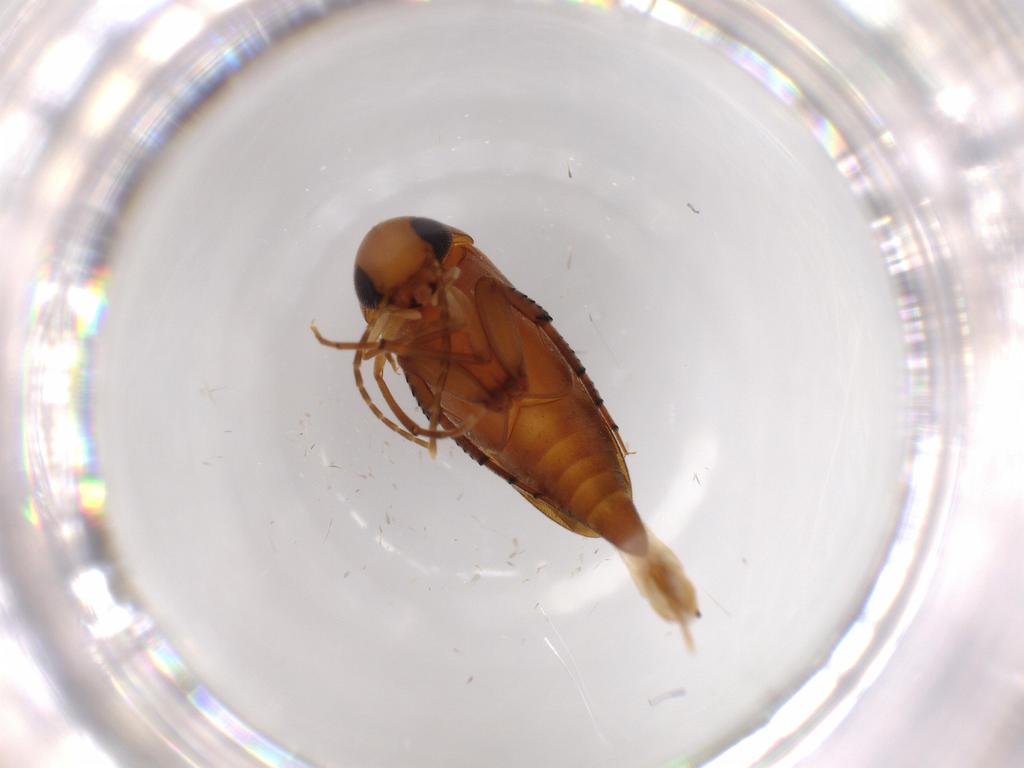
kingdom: Animalia
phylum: Arthropoda
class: Insecta
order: Coleoptera
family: Mordellidae
